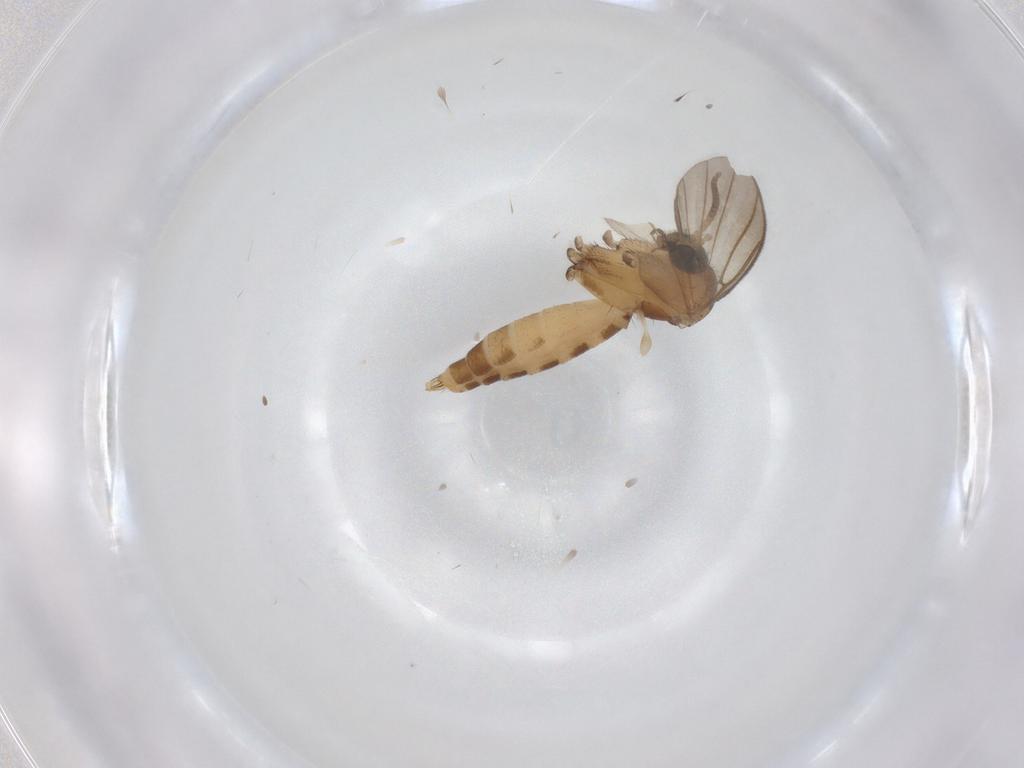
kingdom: Animalia
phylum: Arthropoda
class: Insecta
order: Diptera
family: Mycetophilidae
